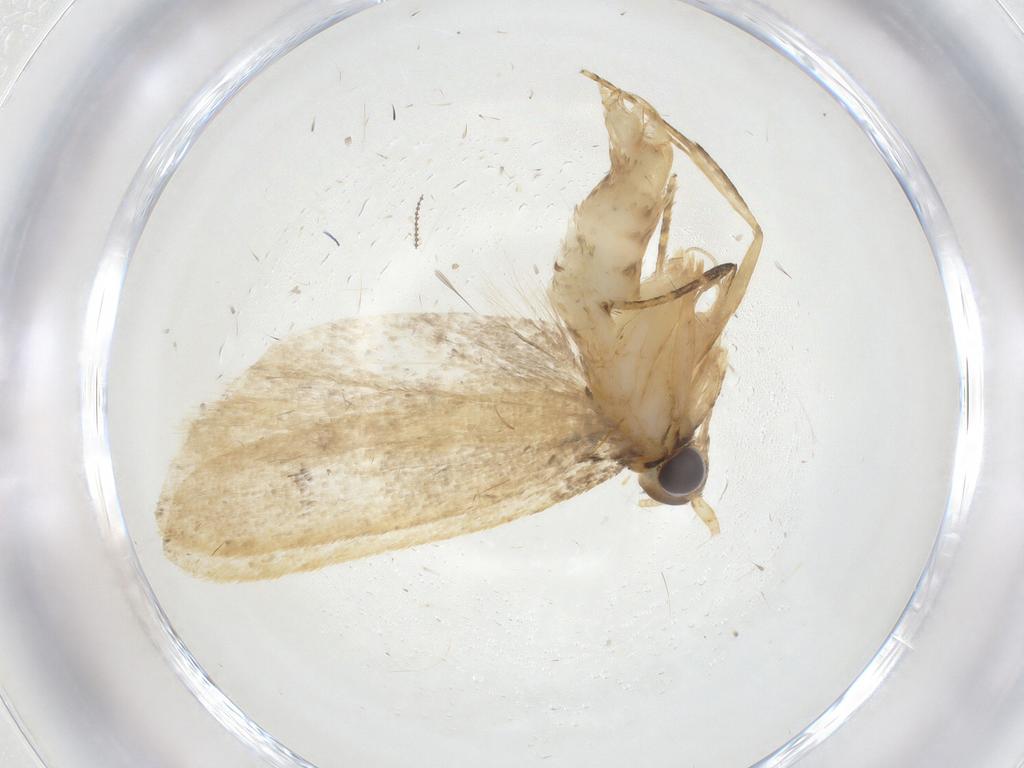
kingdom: Animalia
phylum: Arthropoda
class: Insecta
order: Lepidoptera
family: Lecithoceridae
